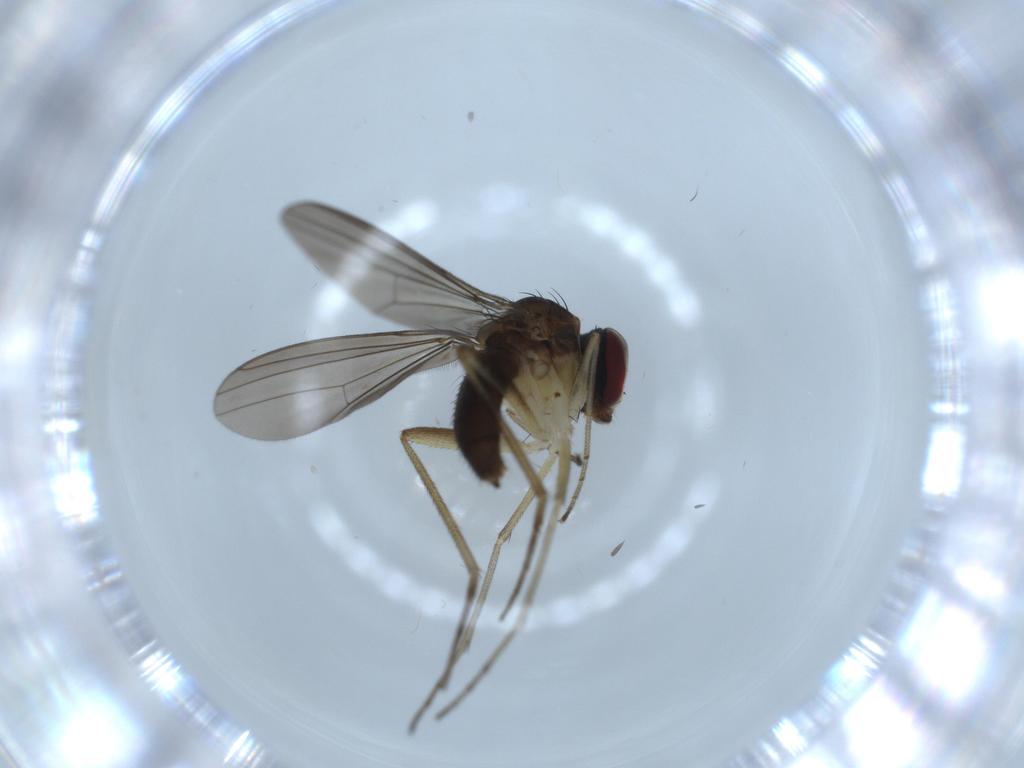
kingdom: Animalia
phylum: Arthropoda
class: Insecta
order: Diptera
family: Dolichopodidae
